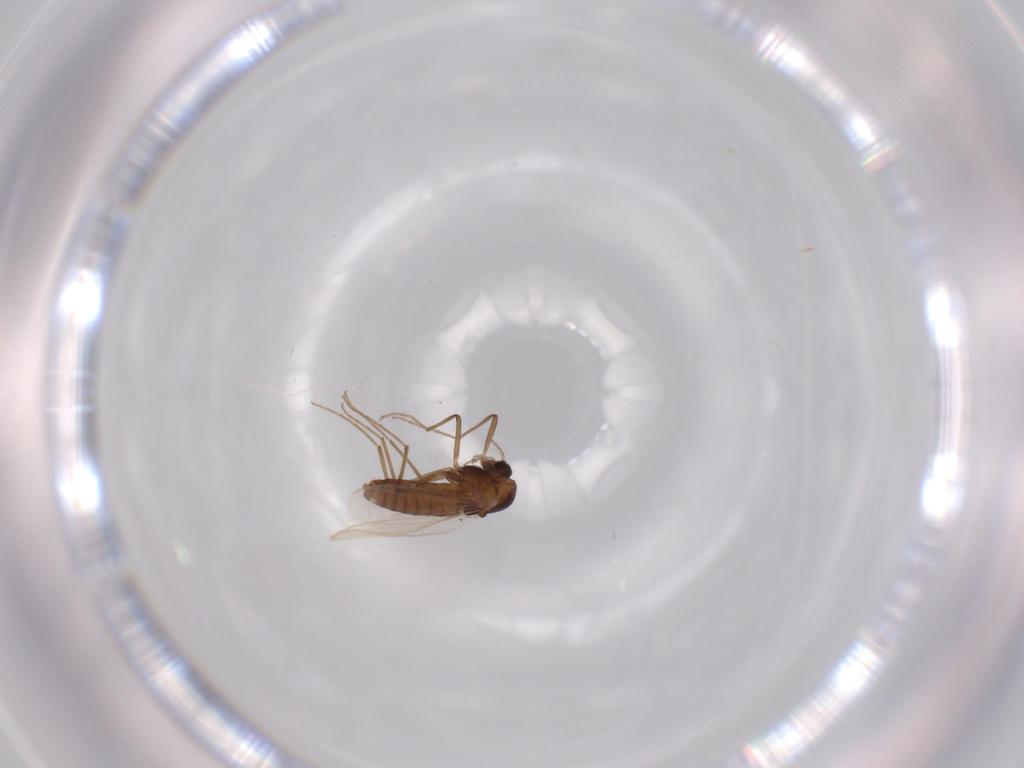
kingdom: Animalia
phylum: Arthropoda
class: Insecta
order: Diptera
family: Chironomidae
